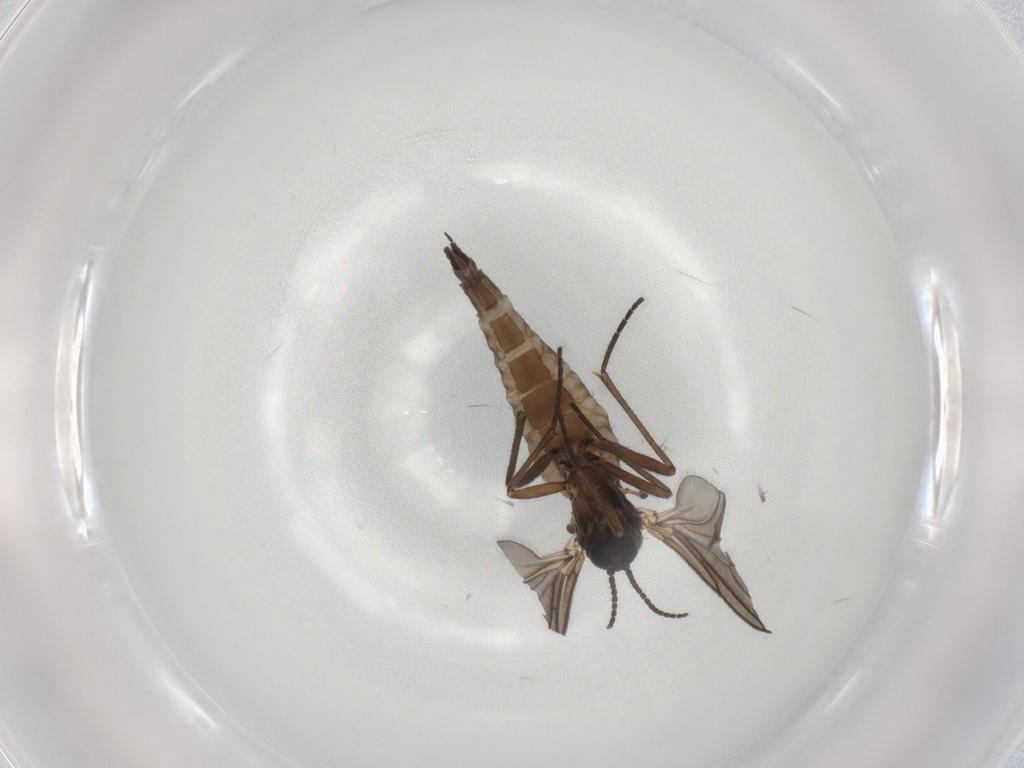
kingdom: Animalia
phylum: Arthropoda
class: Insecta
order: Diptera
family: Sciaridae
